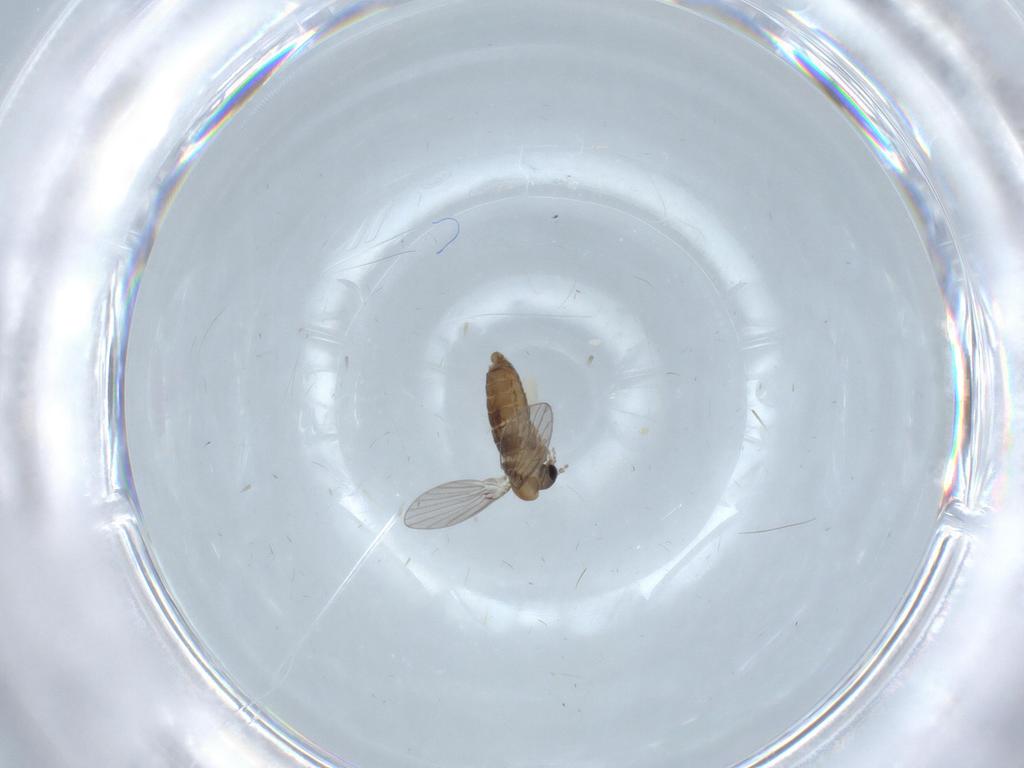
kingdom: Animalia
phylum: Arthropoda
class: Insecta
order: Diptera
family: Psychodidae
